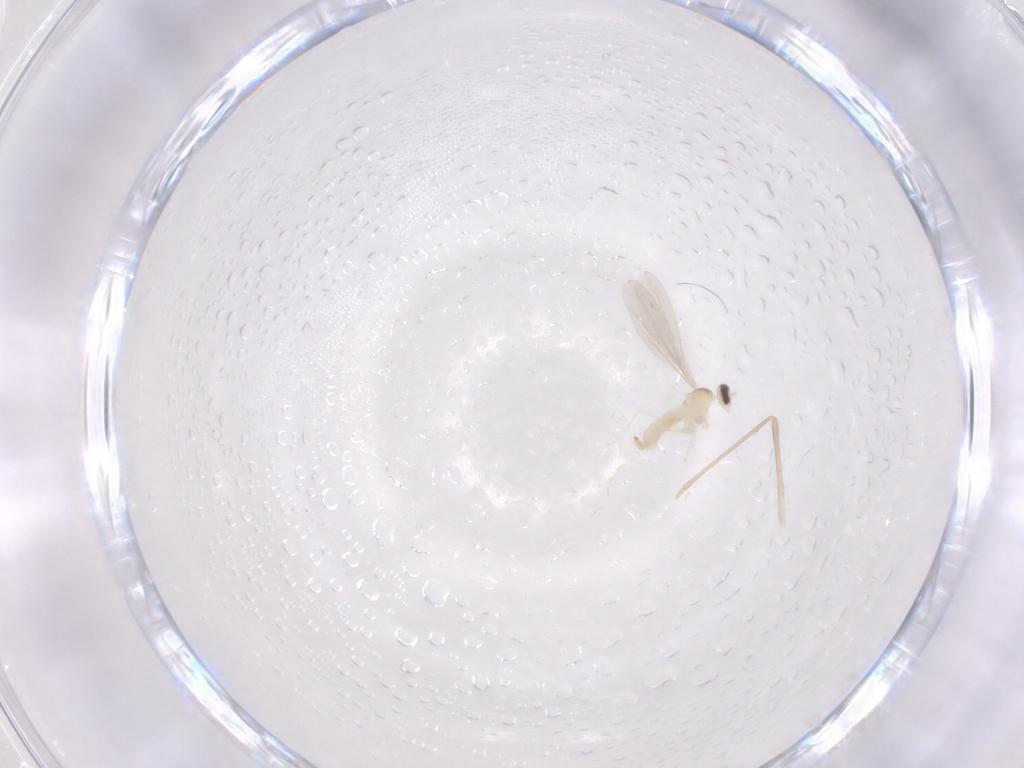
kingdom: Animalia
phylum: Arthropoda
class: Insecta
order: Diptera
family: Cecidomyiidae
